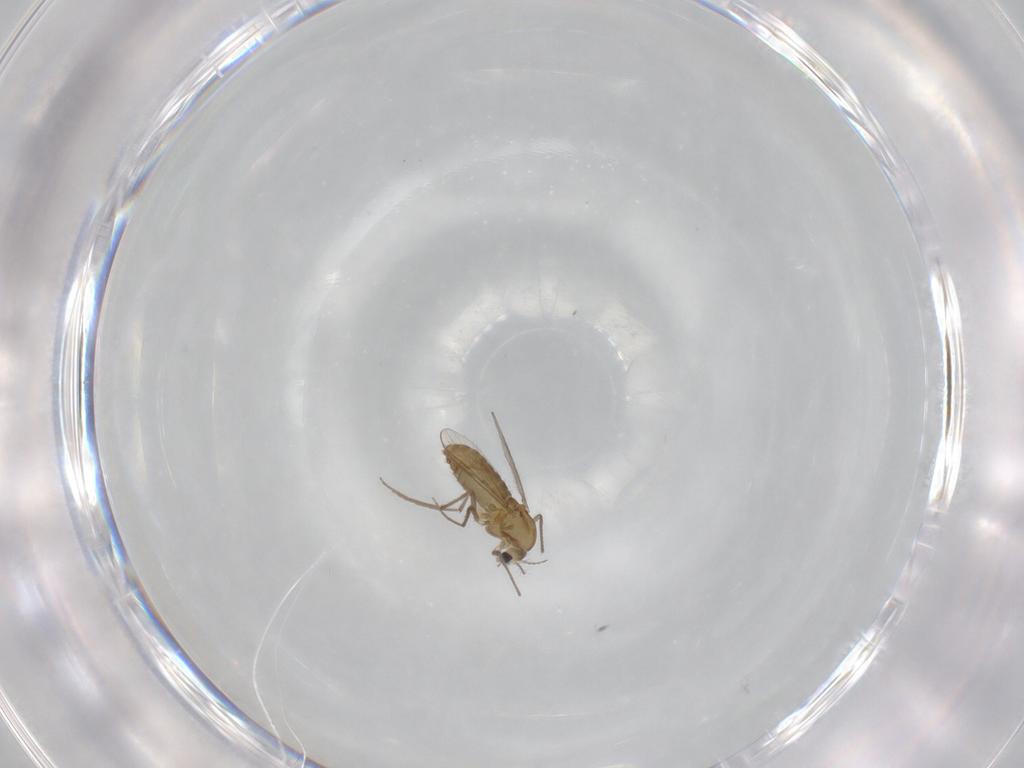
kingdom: Animalia
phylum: Arthropoda
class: Insecta
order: Diptera
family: Chironomidae
